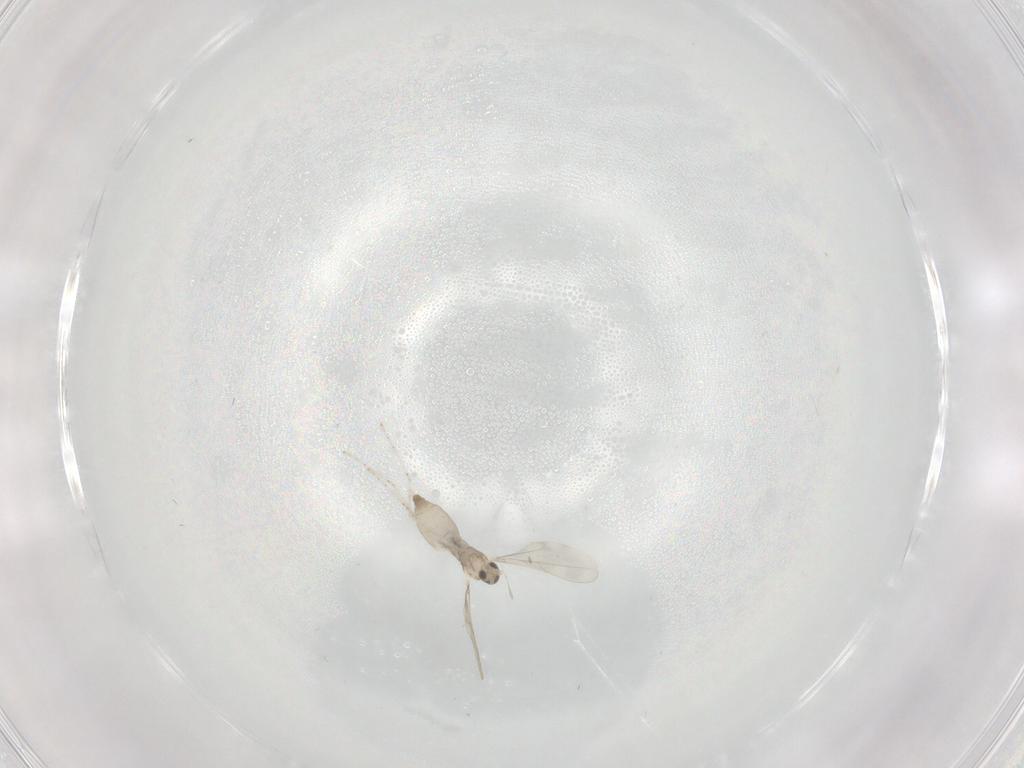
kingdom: Animalia
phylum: Arthropoda
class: Insecta
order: Diptera
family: Milichiidae
